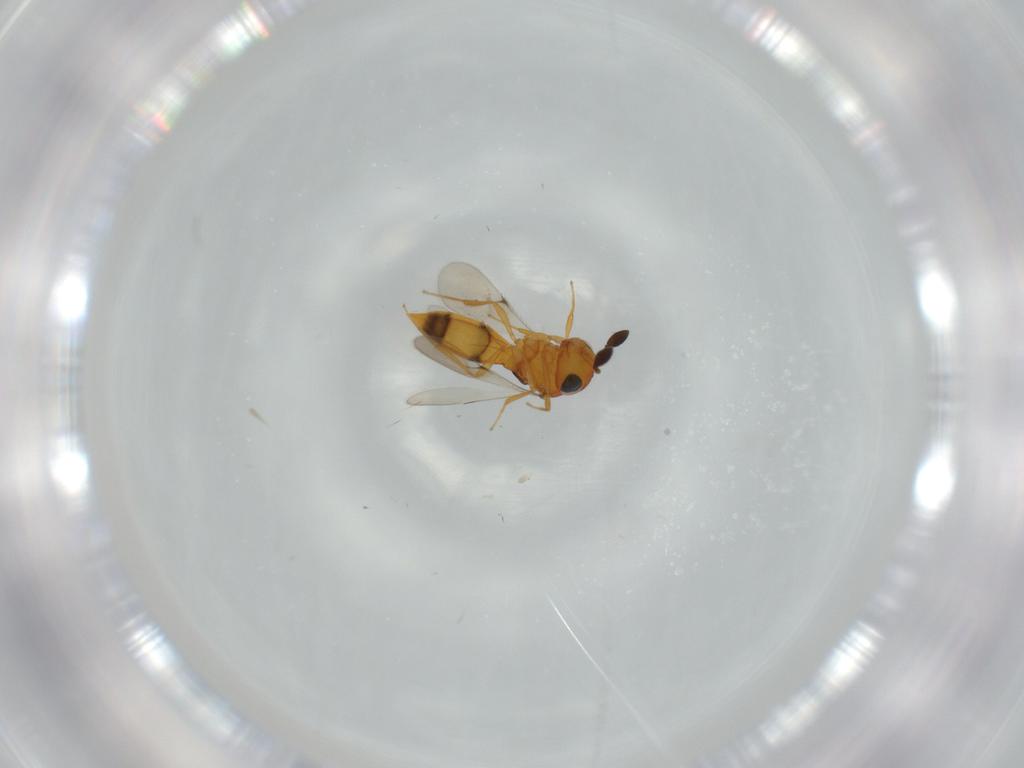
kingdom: Animalia
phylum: Arthropoda
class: Insecta
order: Hymenoptera
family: Scelionidae
